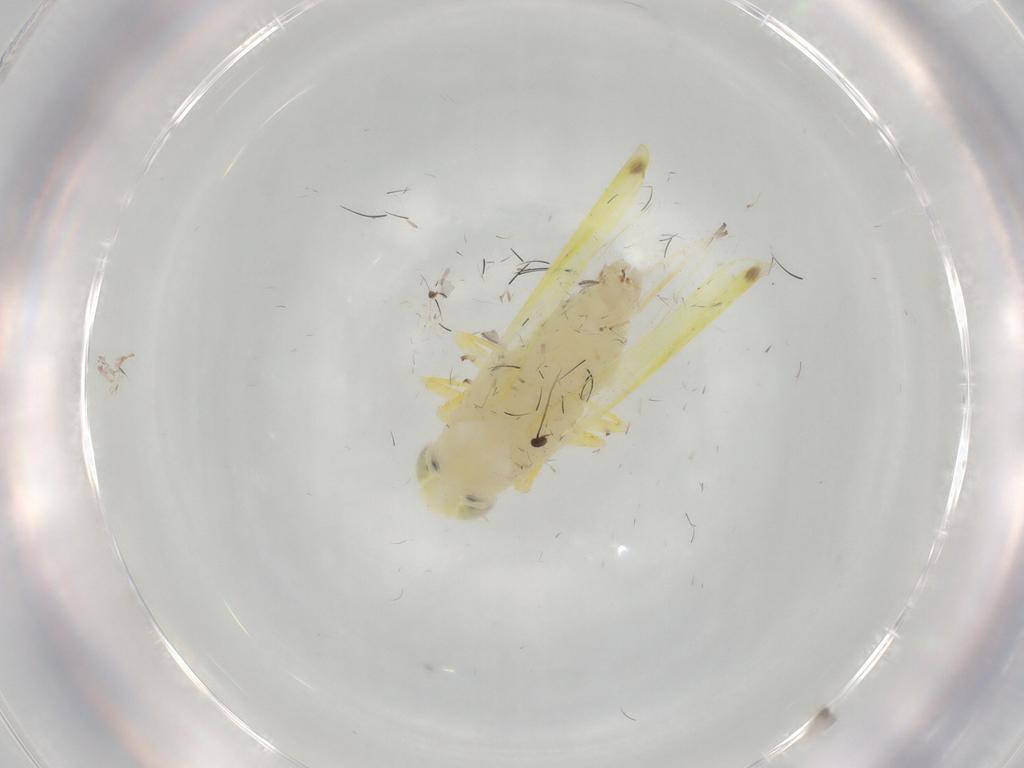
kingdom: Animalia
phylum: Arthropoda
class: Insecta
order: Hemiptera
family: Cicadellidae
